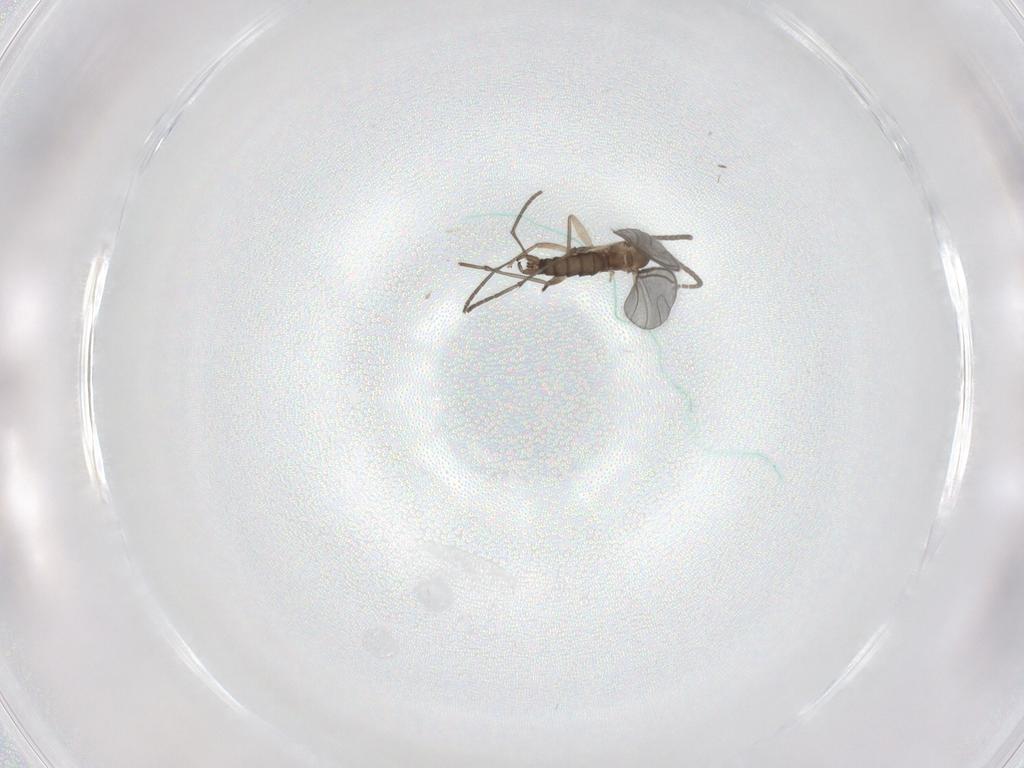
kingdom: Animalia
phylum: Arthropoda
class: Insecta
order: Diptera
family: Sciaridae
